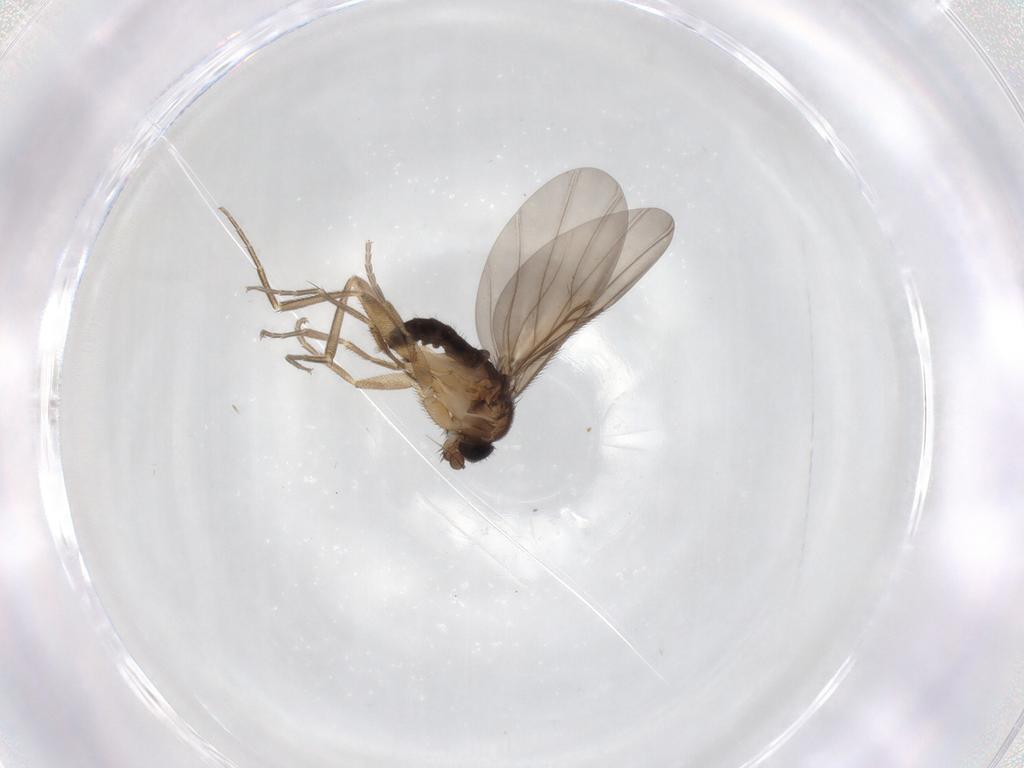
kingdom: Animalia
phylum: Arthropoda
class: Insecta
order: Diptera
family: Phoridae
